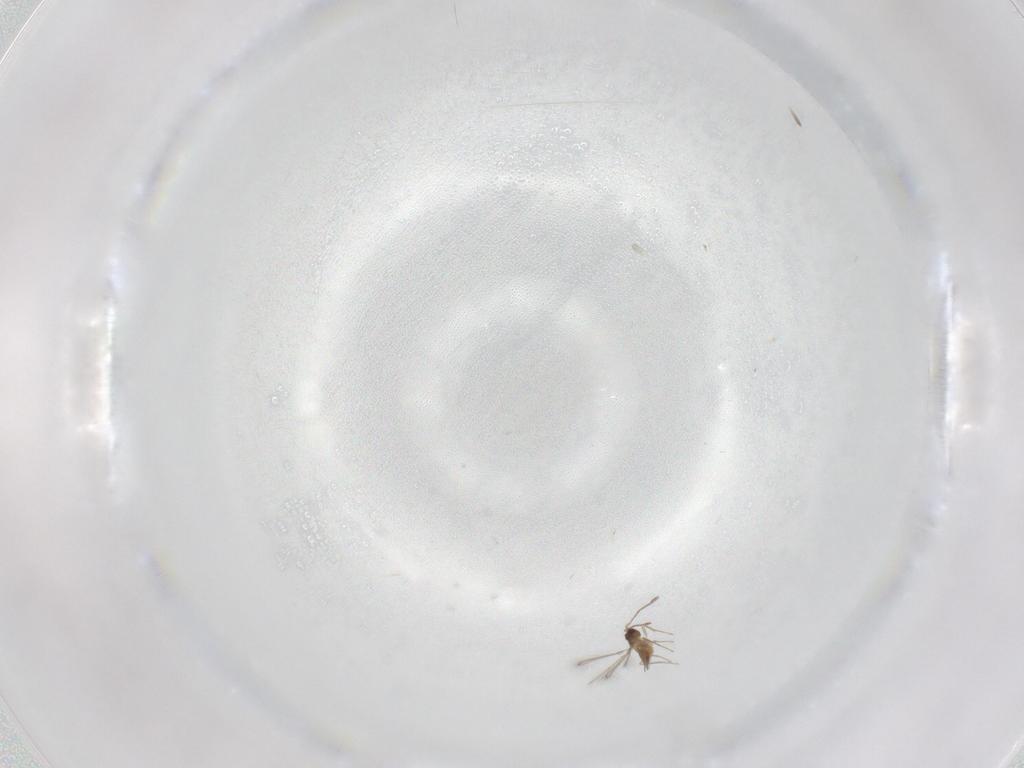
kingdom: Animalia
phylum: Arthropoda
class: Insecta
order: Hymenoptera
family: Mymaridae
